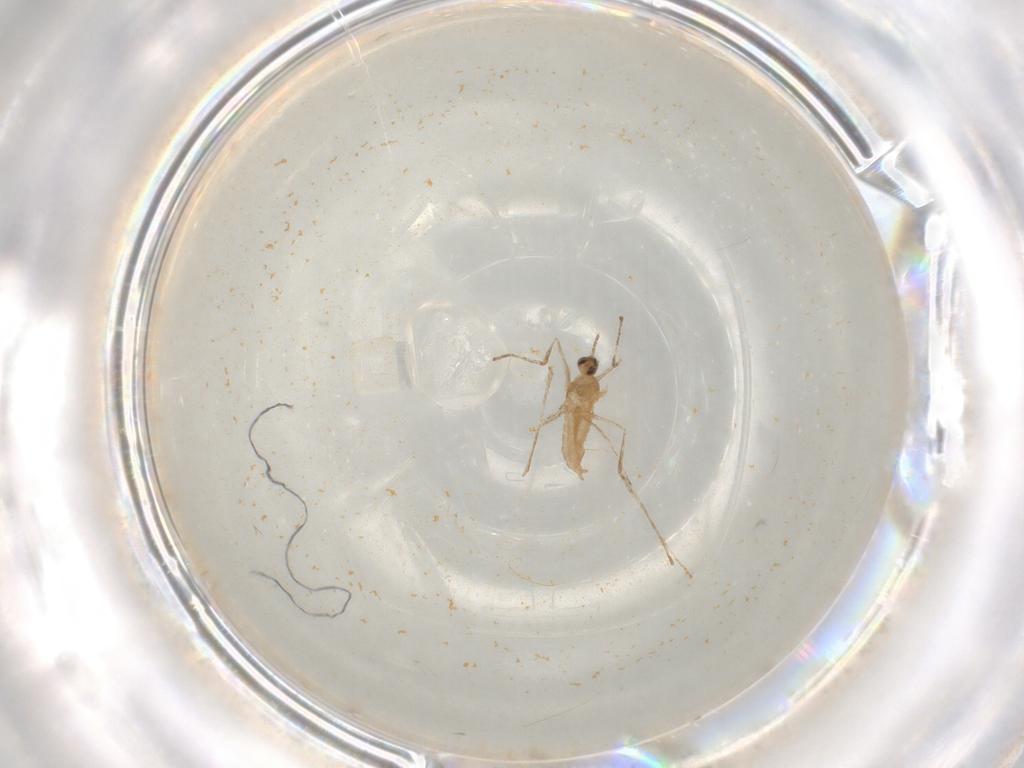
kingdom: Animalia
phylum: Arthropoda
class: Insecta
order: Diptera
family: Cecidomyiidae
